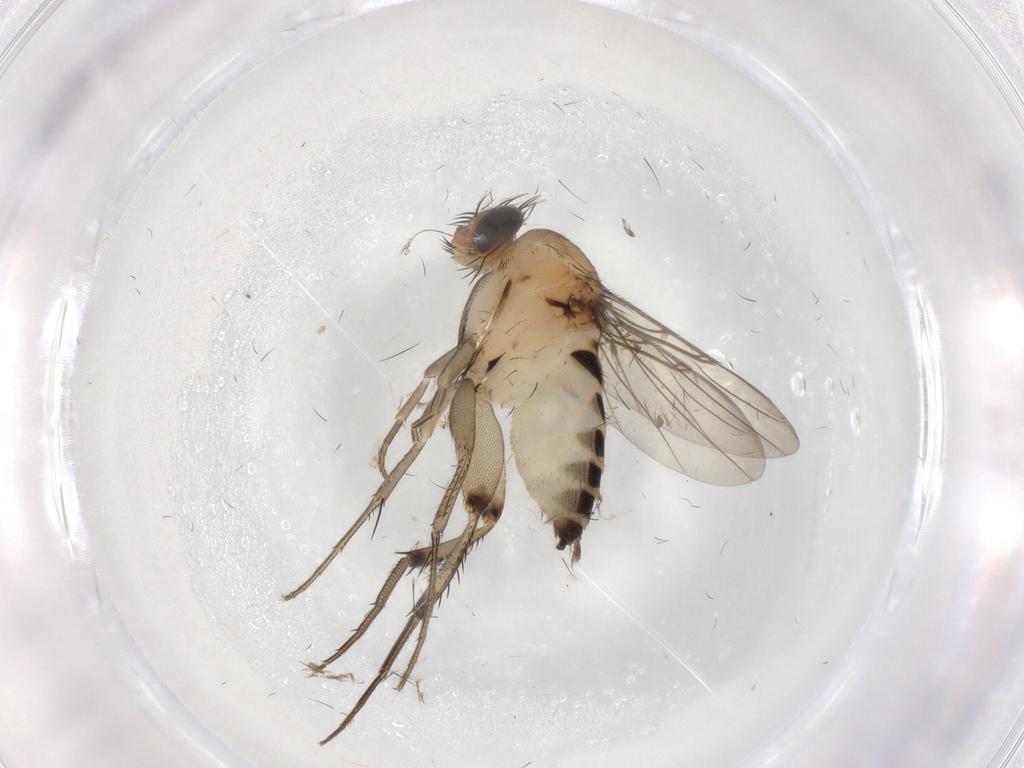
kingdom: Animalia
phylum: Arthropoda
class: Insecta
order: Diptera
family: Phoridae
